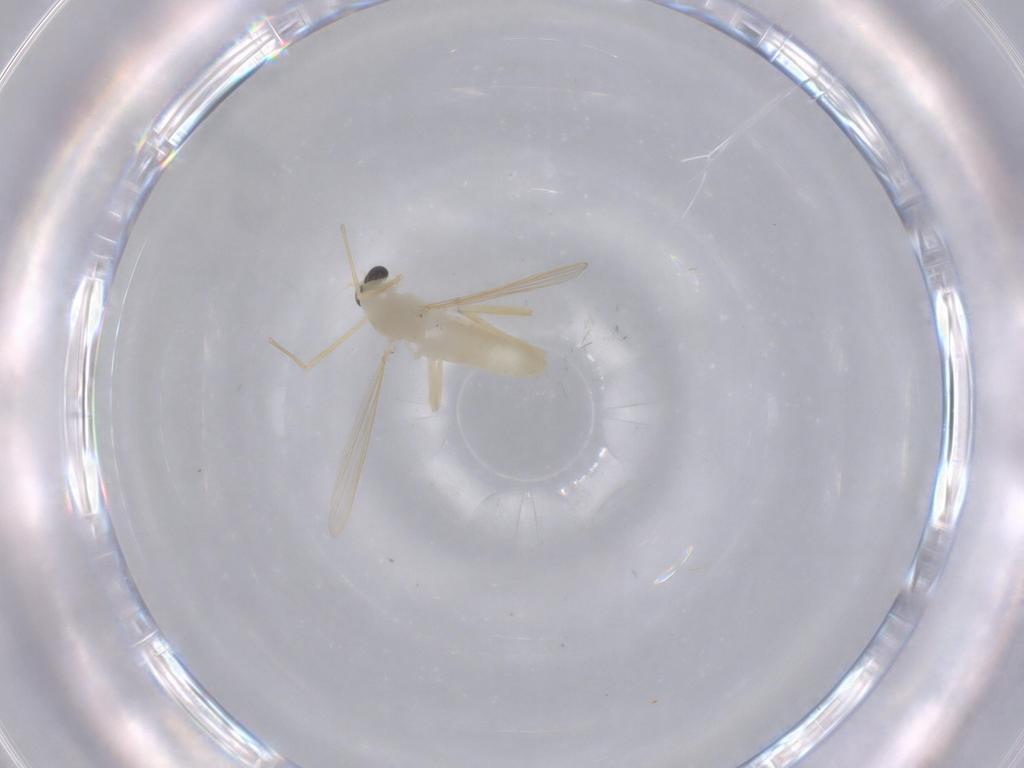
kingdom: Animalia
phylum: Arthropoda
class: Insecta
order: Diptera
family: Sciaridae
